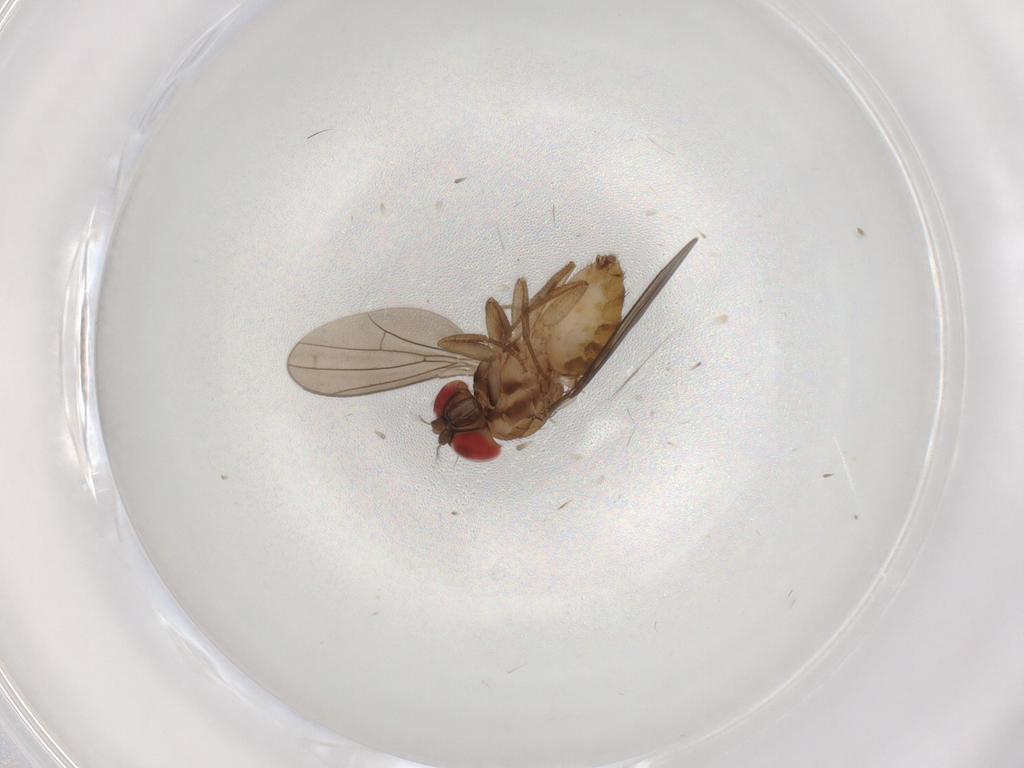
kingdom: Animalia
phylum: Arthropoda
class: Insecta
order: Diptera
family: Drosophilidae
